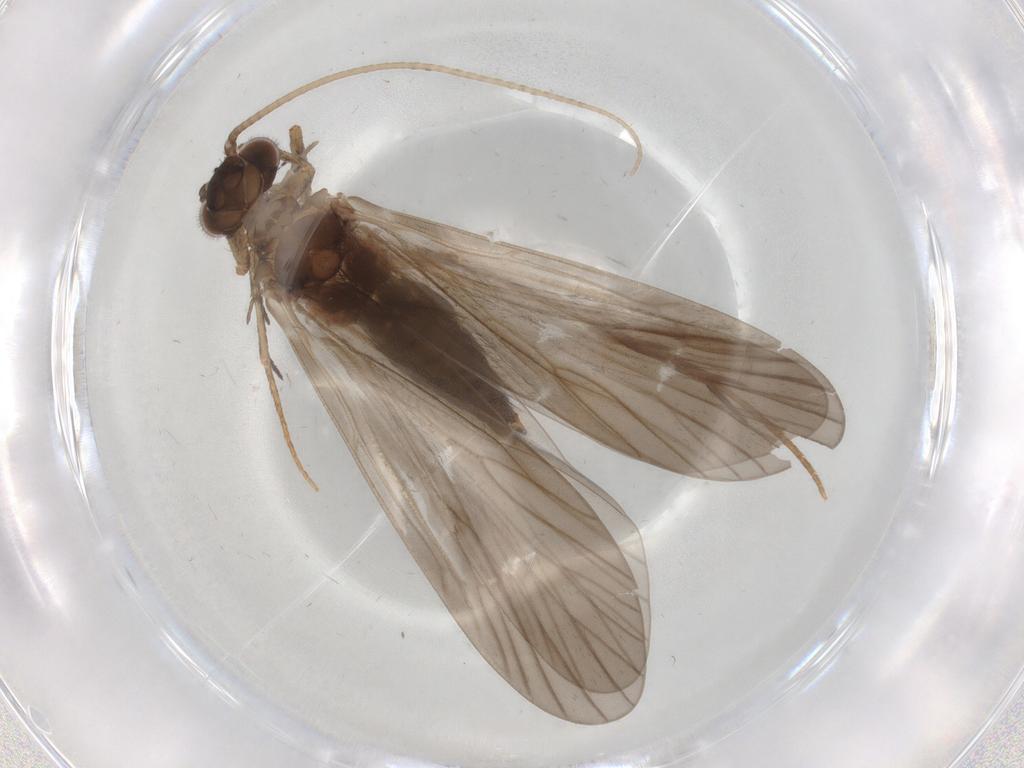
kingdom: Animalia
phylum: Arthropoda
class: Insecta
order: Trichoptera
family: Philopotamidae
